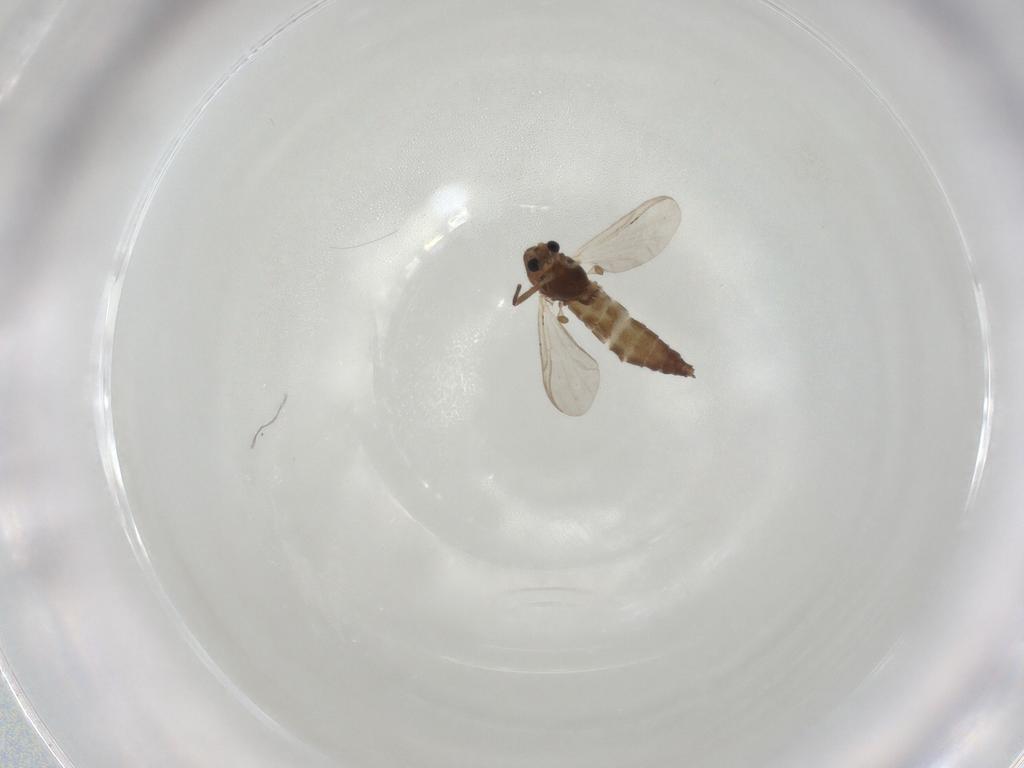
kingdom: Animalia
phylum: Arthropoda
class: Insecta
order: Diptera
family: Chironomidae
